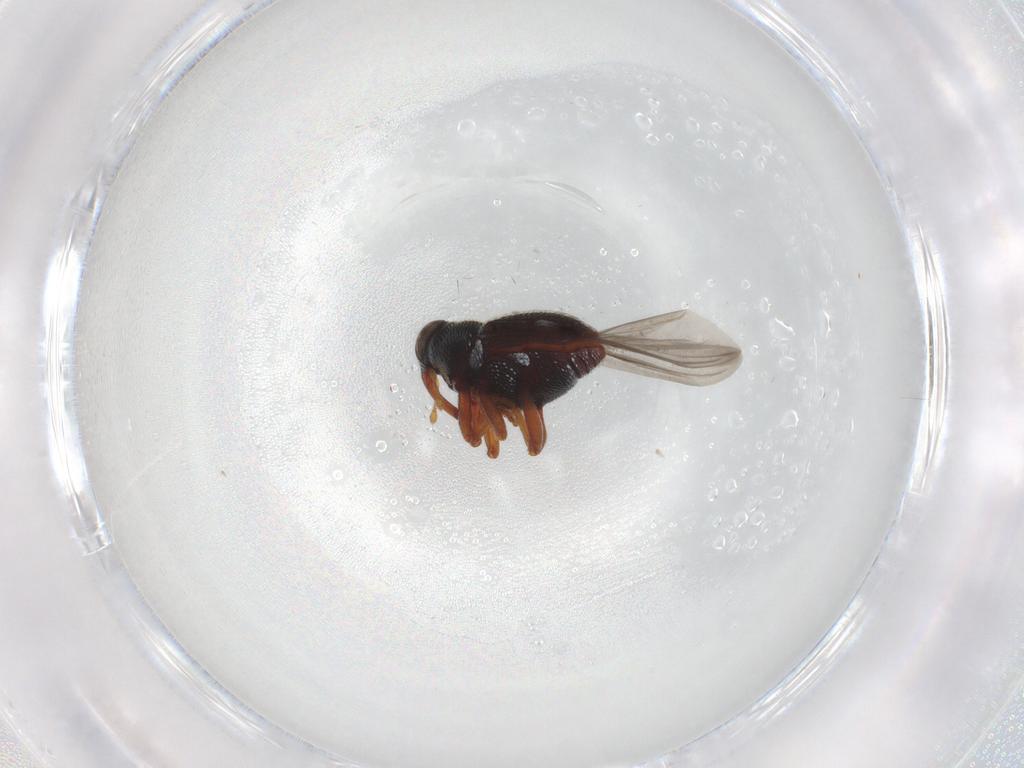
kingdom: Animalia
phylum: Arthropoda
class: Insecta
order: Coleoptera
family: Curculionidae
